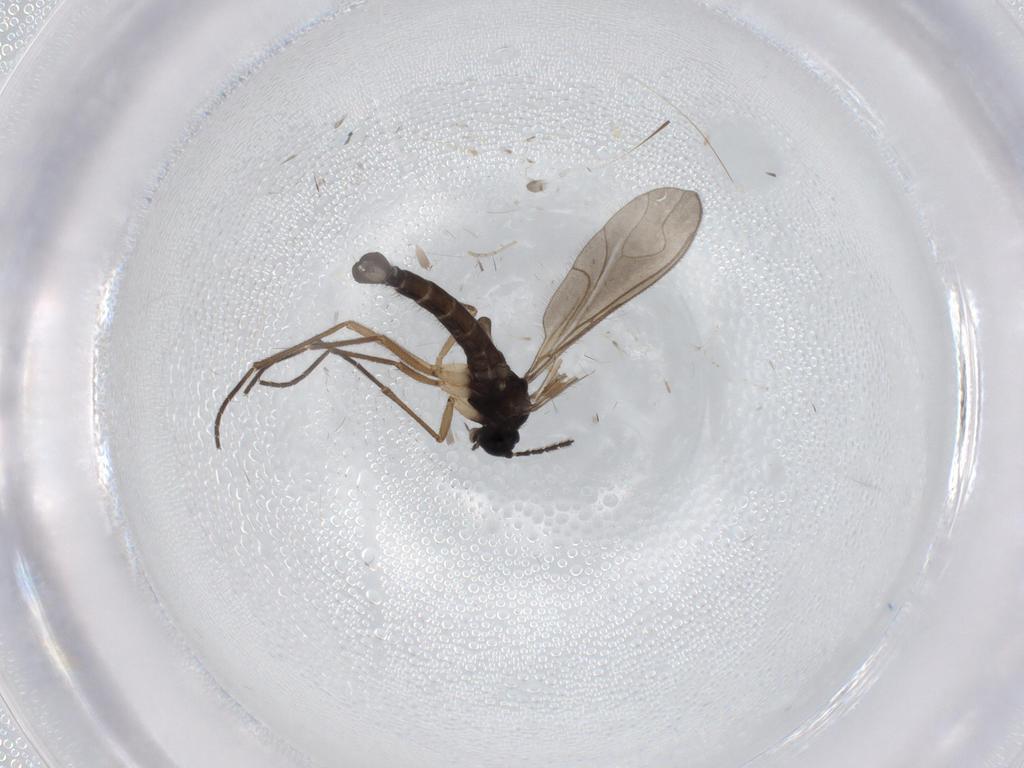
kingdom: Animalia
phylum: Arthropoda
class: Insecta
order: Diptera
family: Sciaridae
